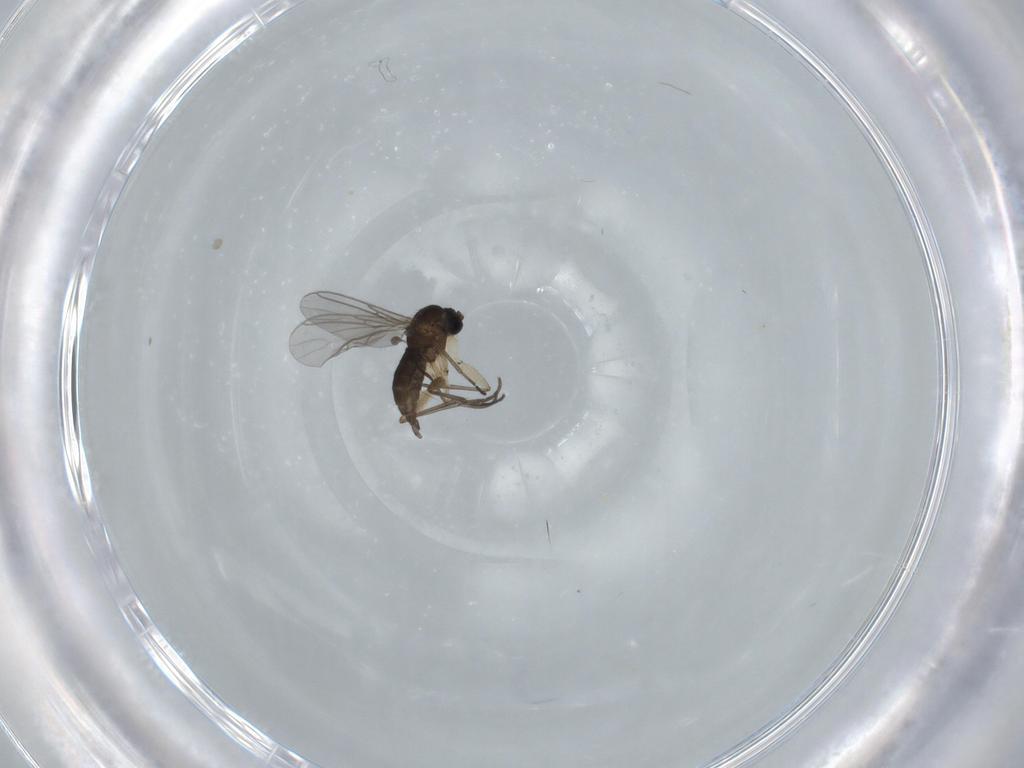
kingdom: Animalia
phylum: Arthropoda
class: Insecta
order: Diptera
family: Sciaridae
